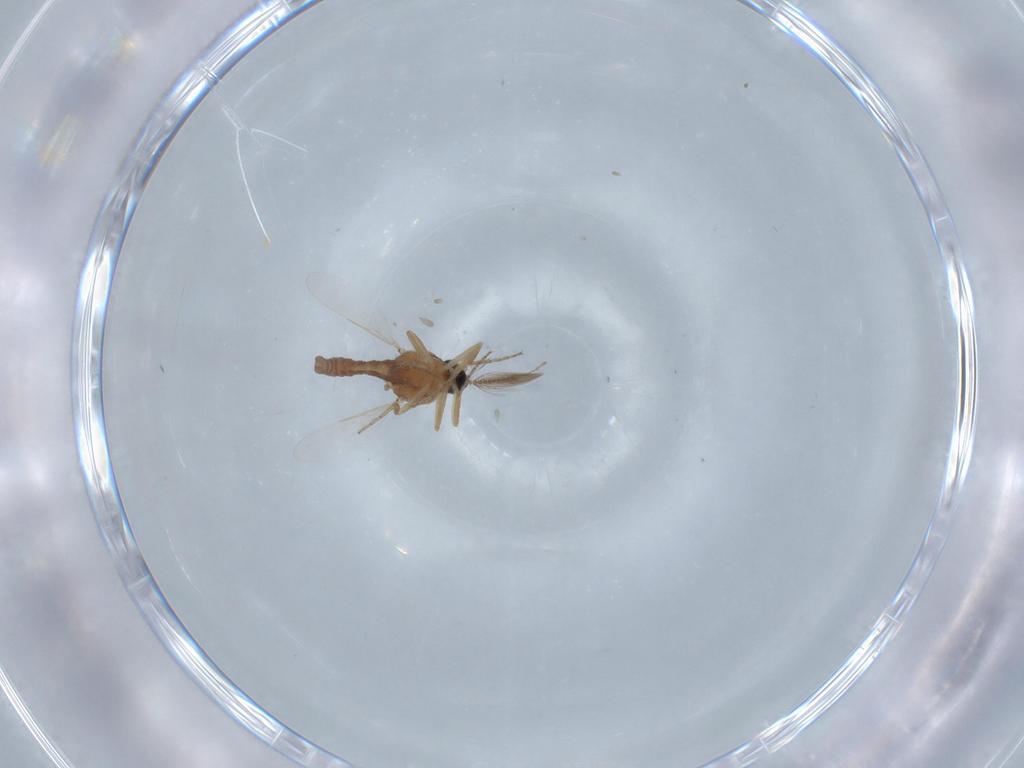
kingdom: Animalia
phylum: Arthropoda
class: Insecta
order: Diptera
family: Ceratopogonidae
